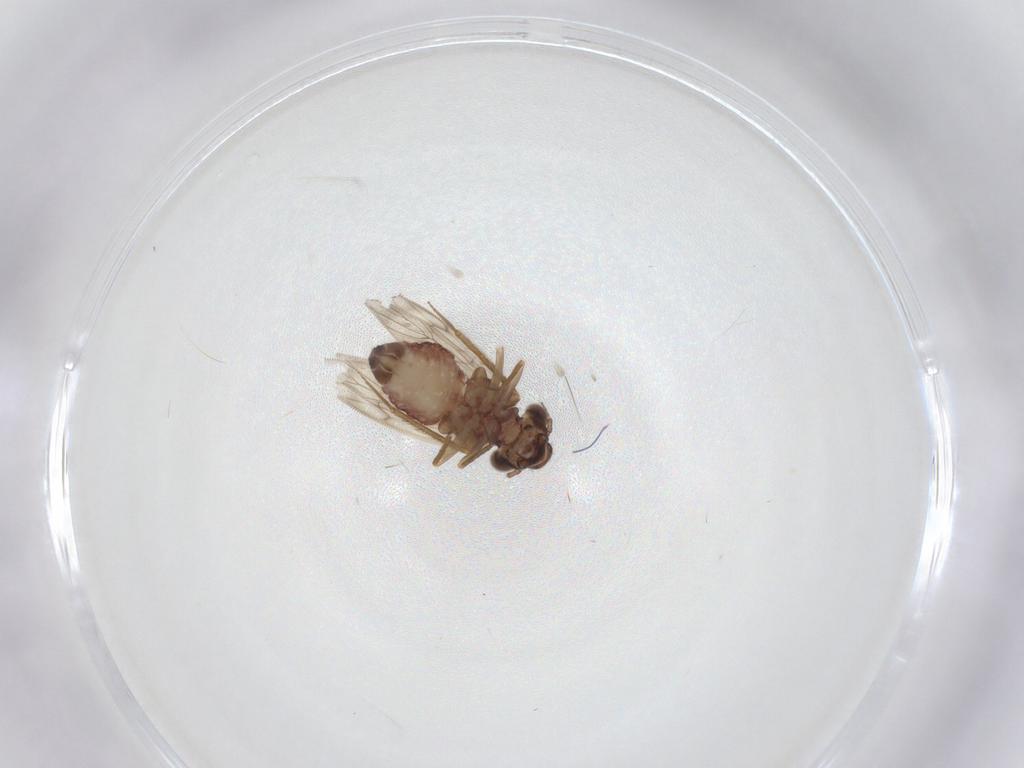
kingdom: Animalia
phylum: Arthropoda
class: Insecta
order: Psocodea
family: Lepidopsocidae
